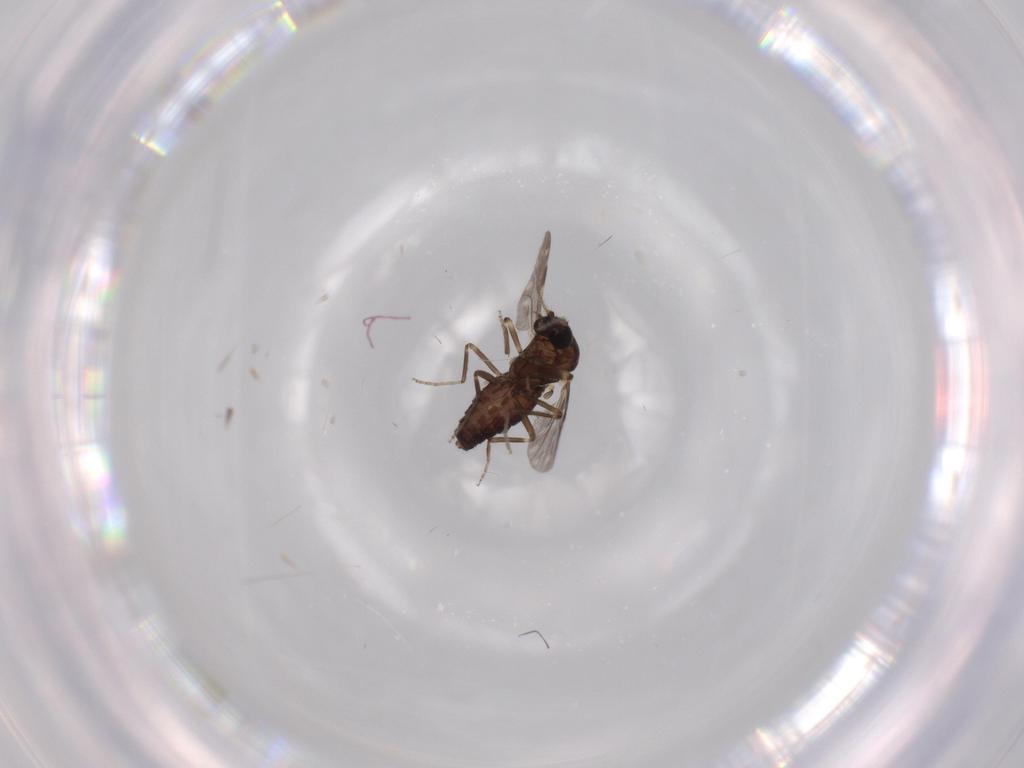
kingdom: Animalia
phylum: Arthropoda
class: Insecta
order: Diptera
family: Ceratopogonidae
